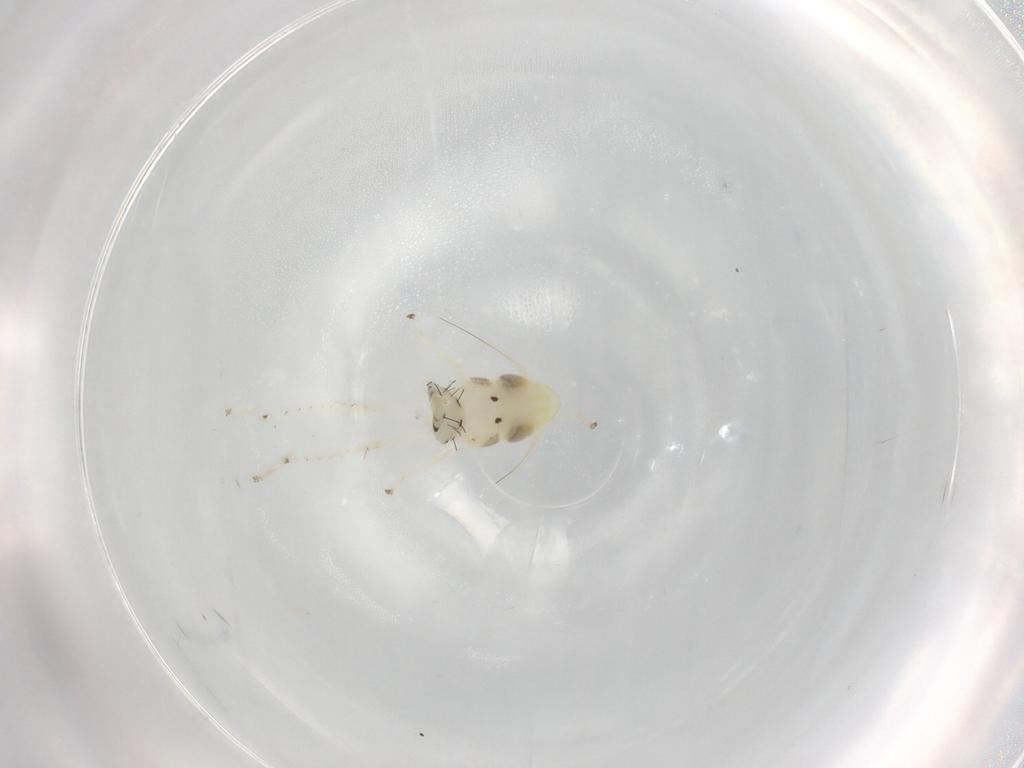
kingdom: Animalia
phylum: Arthropoda
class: Insecta
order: Hemiptera
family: Cicadellidae
